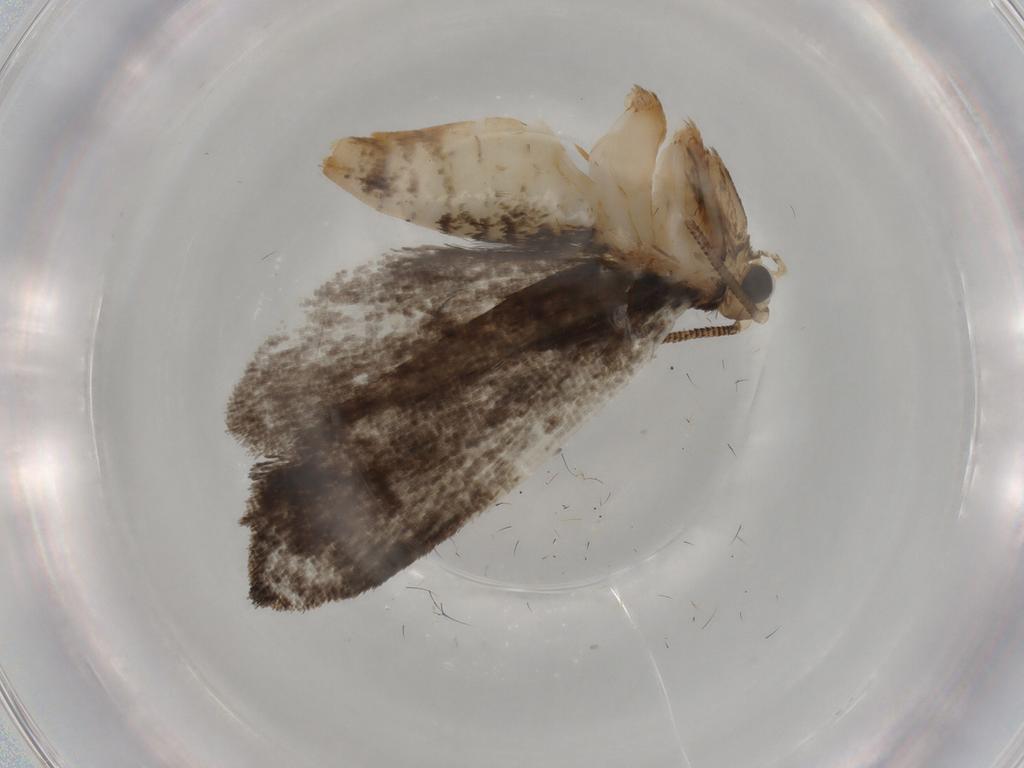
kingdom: Animalia
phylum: Arthropoda
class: Insecta
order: Lepidoptera
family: Tineidae
